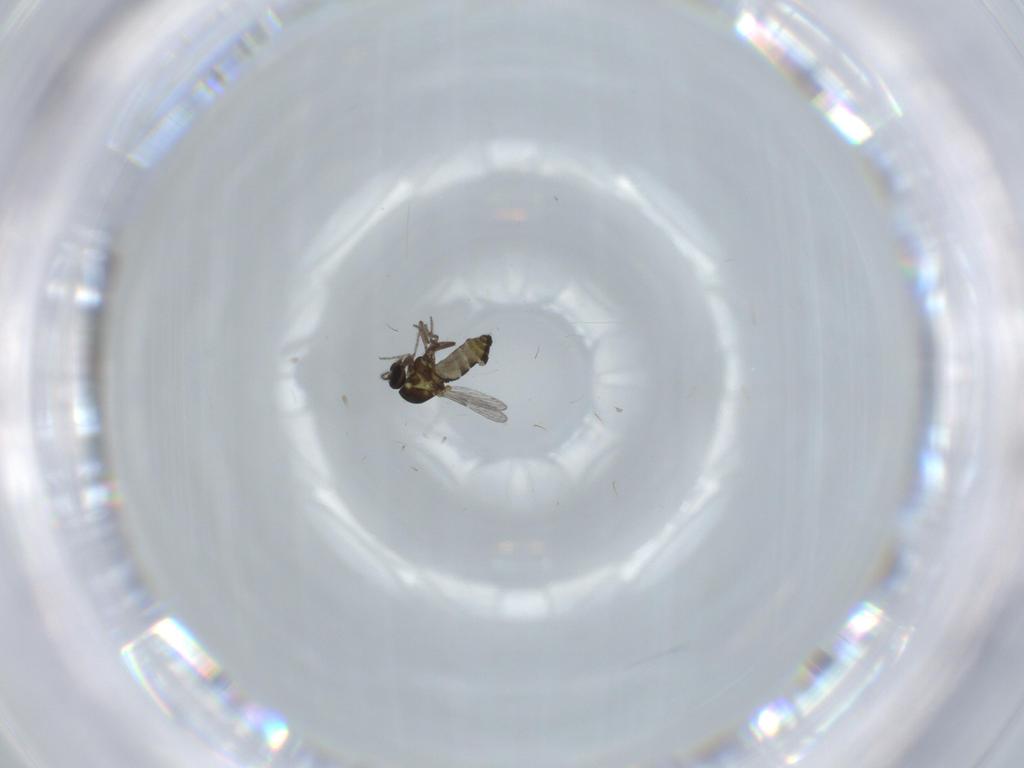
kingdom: Animalia
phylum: Arthropoda
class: Insecta
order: Diptera
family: Ceratopogonidae
